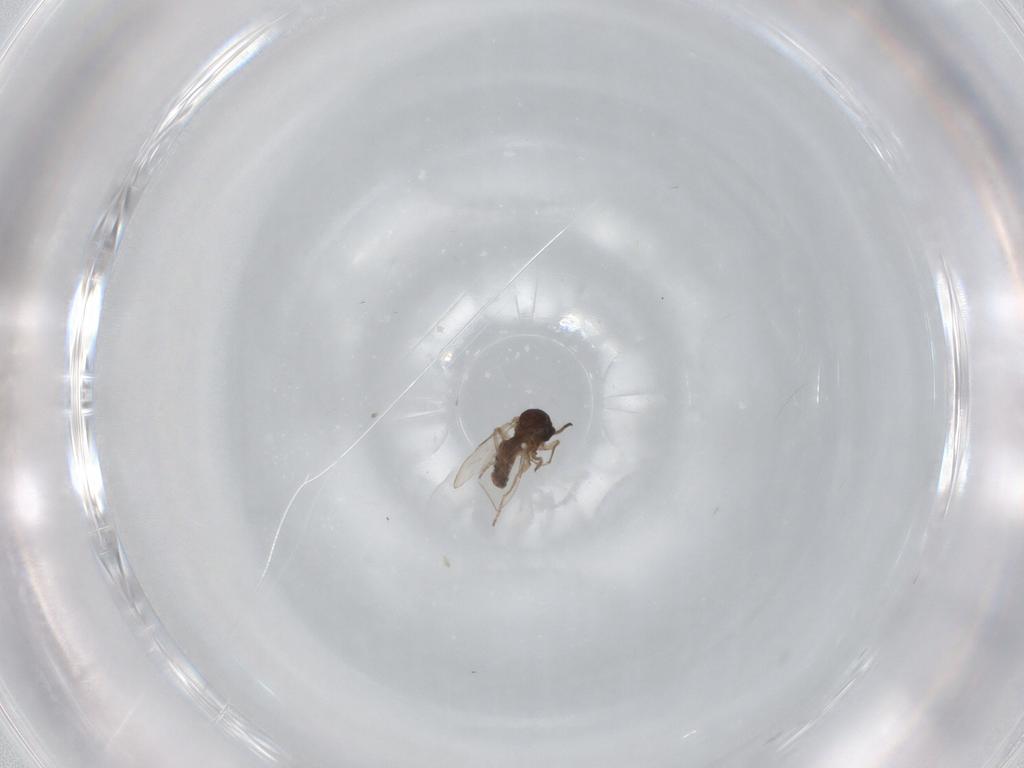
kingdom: Animalia
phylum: Arthropoda
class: Insecta
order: Diptera
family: Ceratopogonidae
